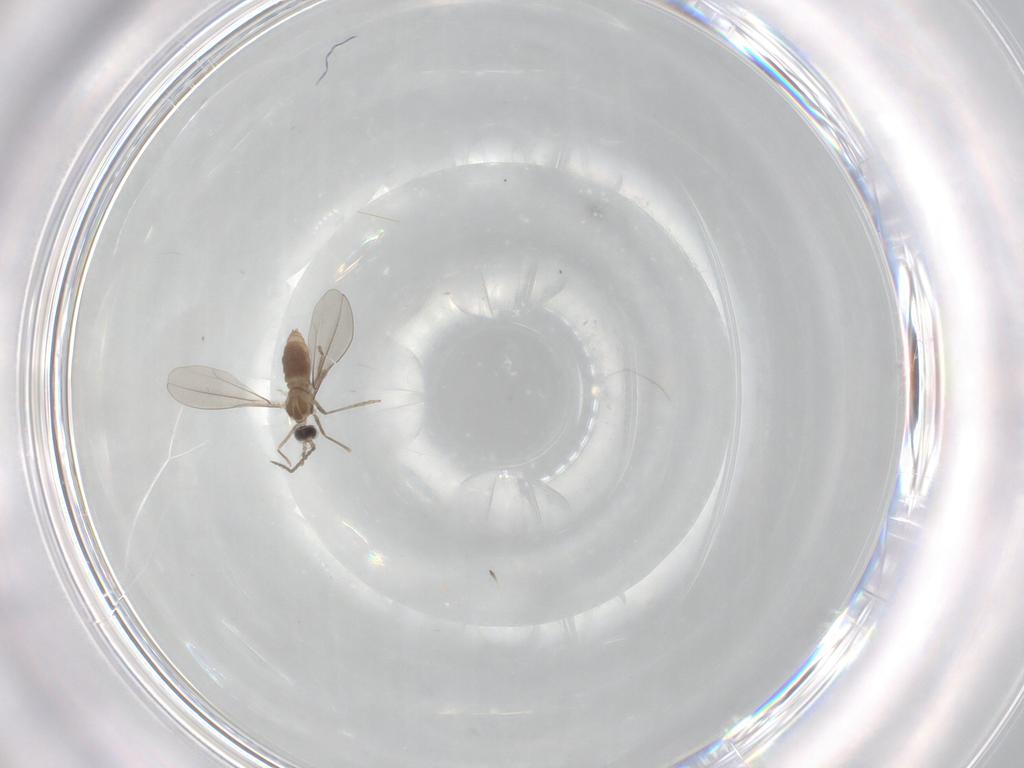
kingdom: Animalia
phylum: Arthropoda
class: Insecta
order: Diptera
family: Cecidomyiidae
